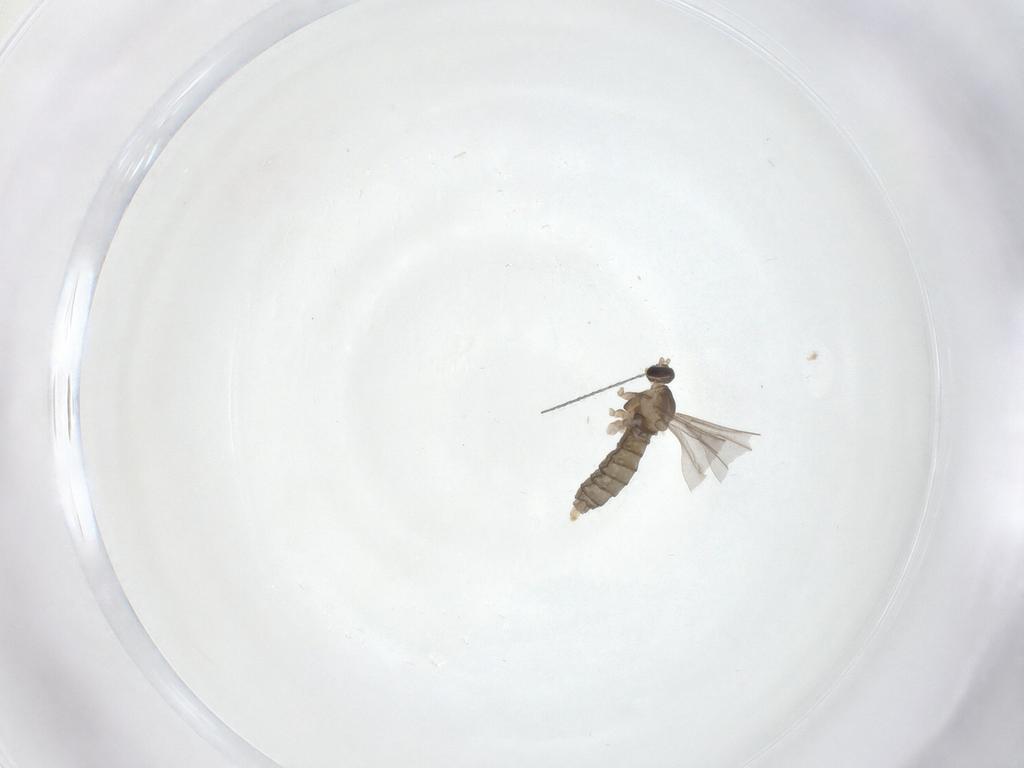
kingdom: Animalia
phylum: Arthropoda
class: Insecta
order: Diptera
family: Cecidomyiidae
